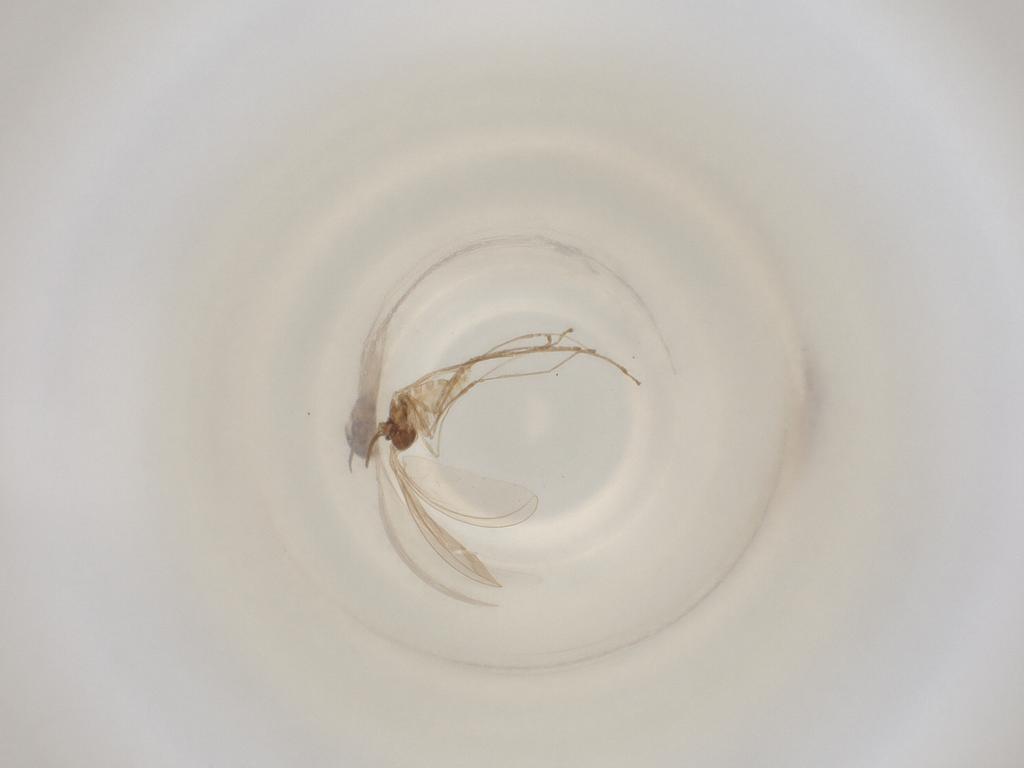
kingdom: Animalia
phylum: Arthropoda
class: Insecta
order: Diptera
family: Cecidomyiidae
